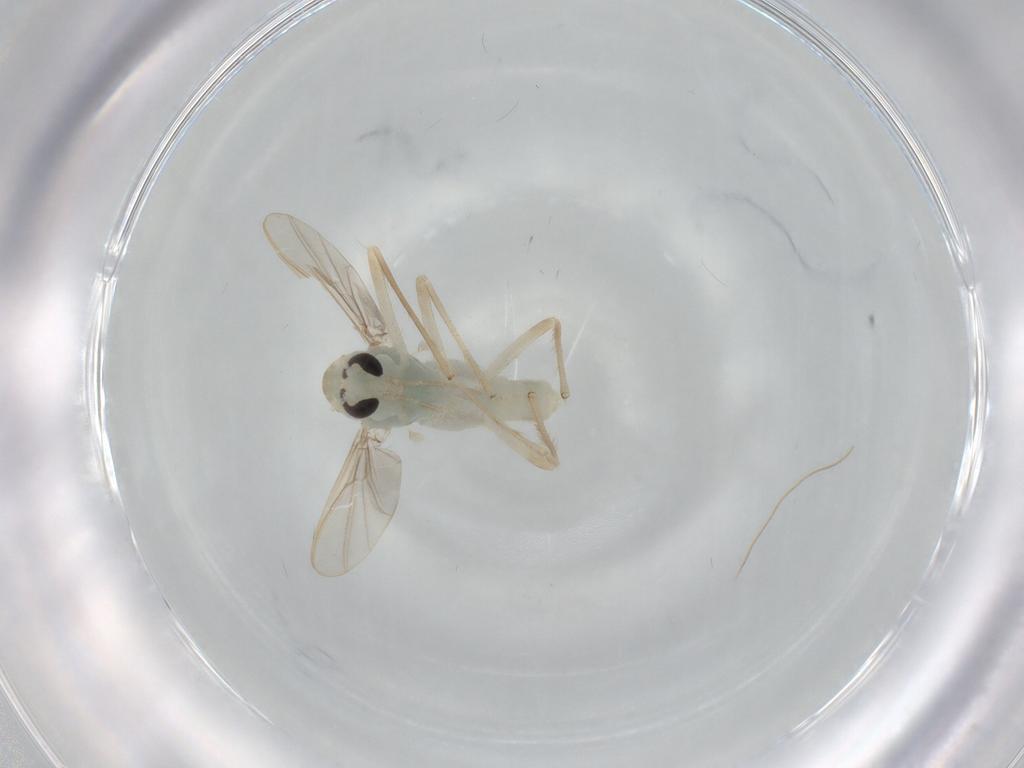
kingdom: Animalia
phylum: Arthropoda
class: Insecta
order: Diptera
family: Chironomidae
